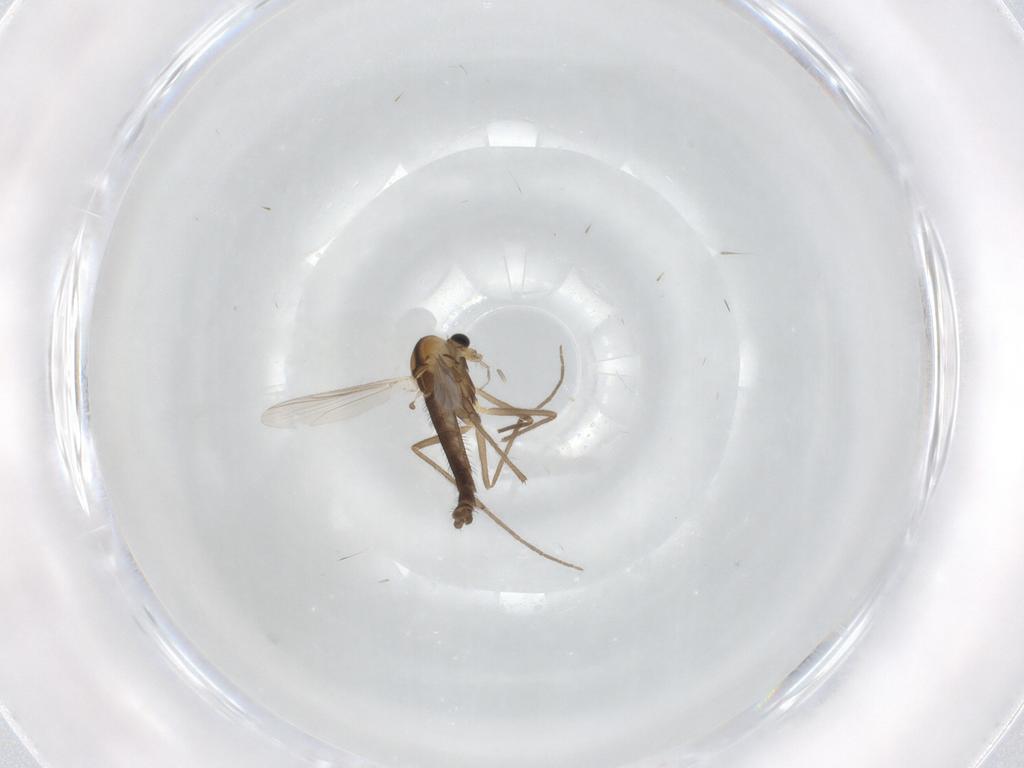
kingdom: Animalia
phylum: Arthropoda
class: Insecta
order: Diptera
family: Chironomidae
